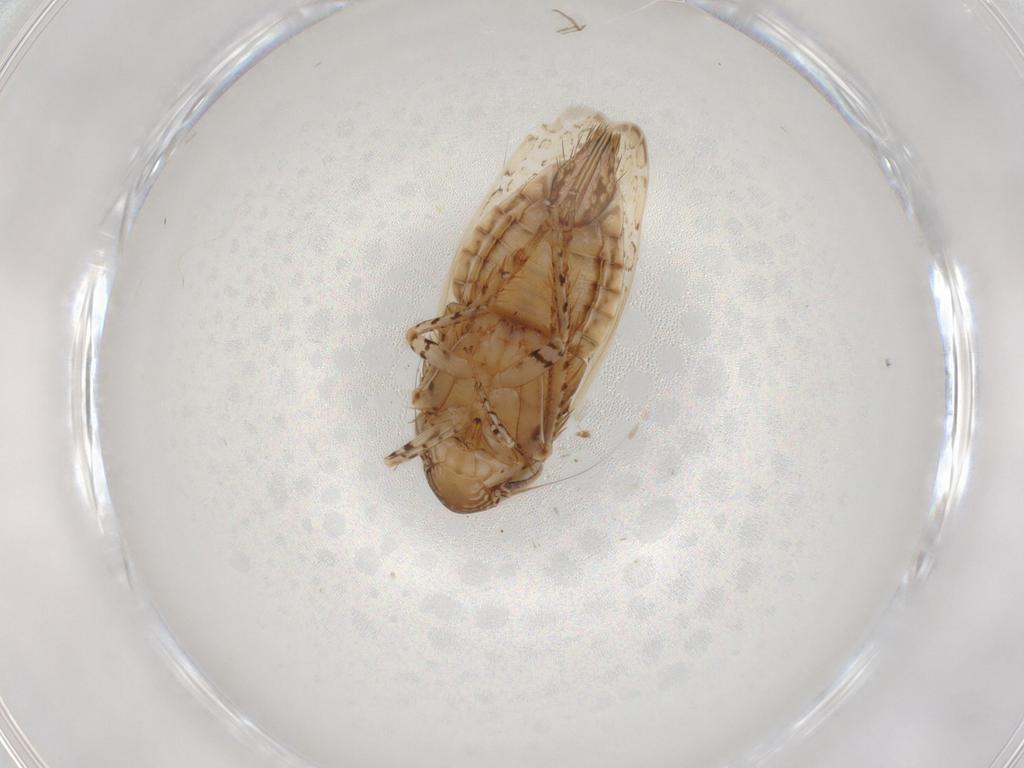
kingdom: Animalia
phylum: Arthropoda
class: Insecta
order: Hemiptera
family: Cicadellidae
